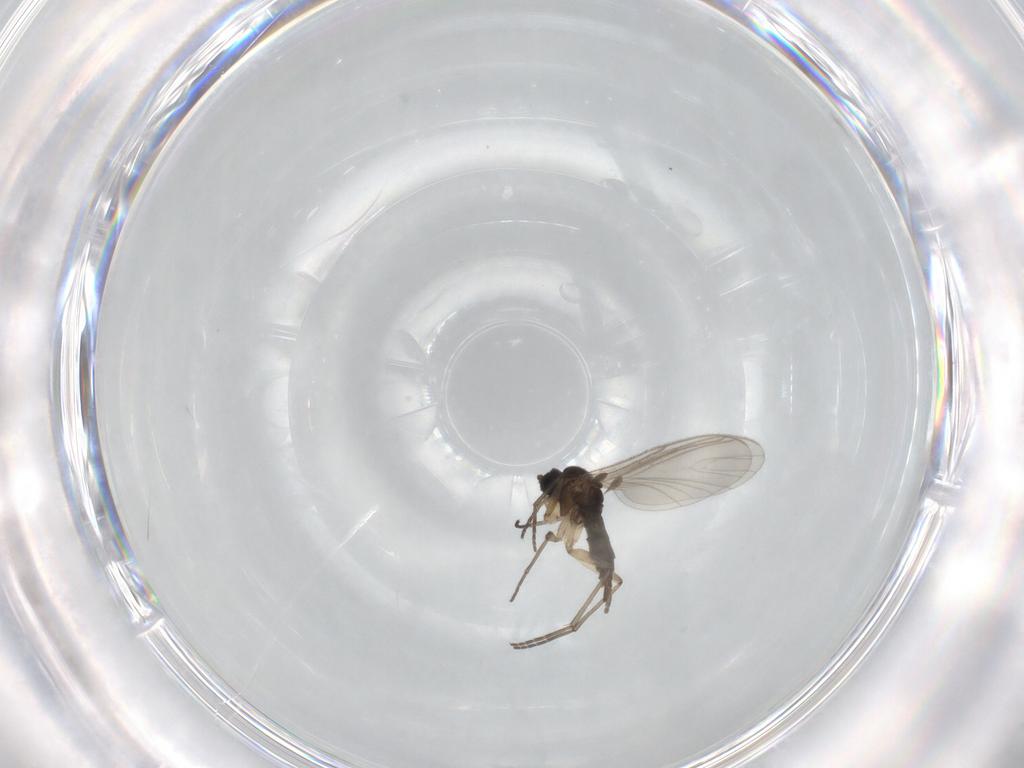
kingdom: Animalia
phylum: Arthropoda
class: Insecta
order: Diptera
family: Sciaridae
